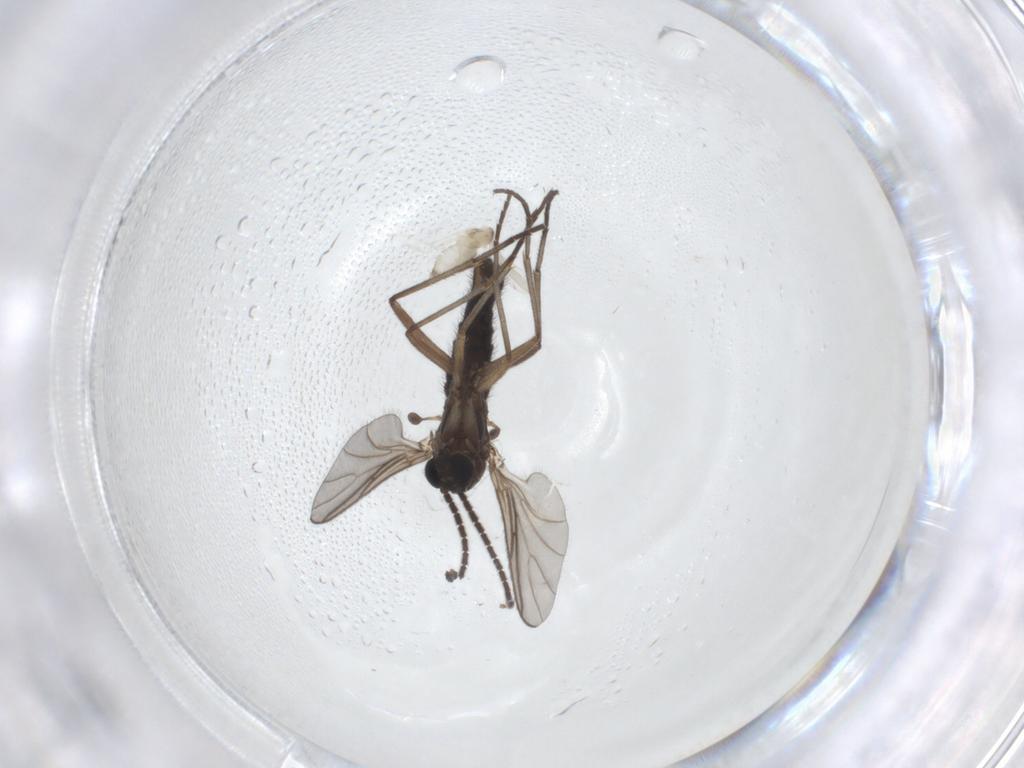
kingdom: Animalia
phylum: Arthropoda
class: Insecta
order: Diptera
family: Sciaridae
